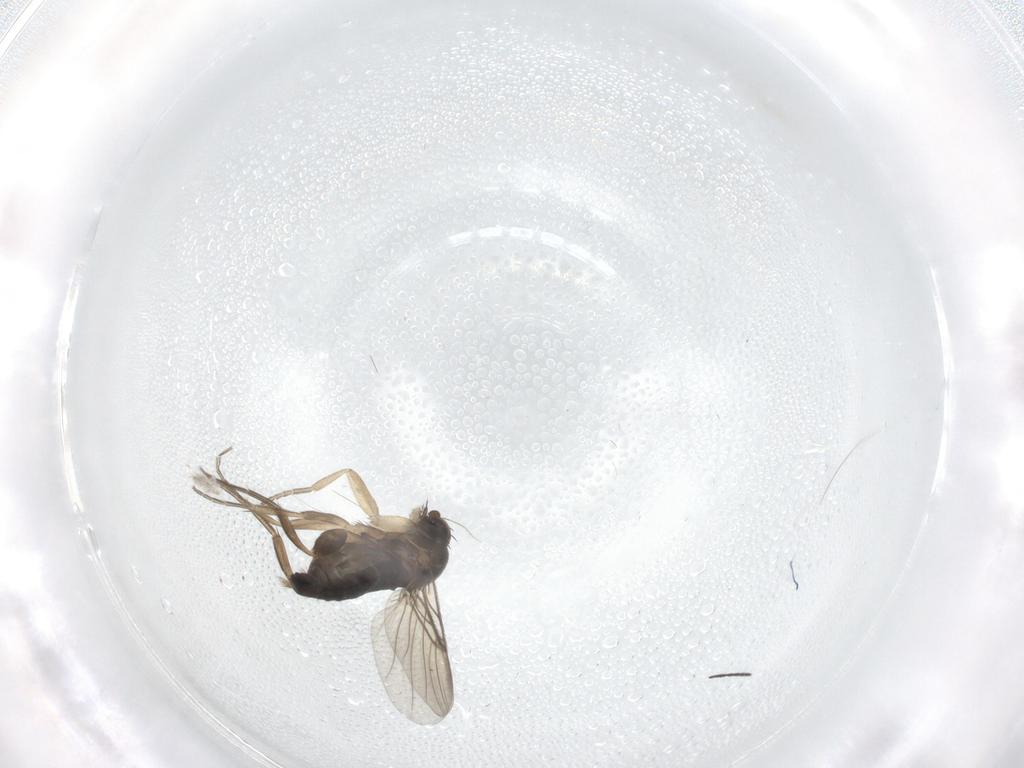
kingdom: Animalia
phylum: Arthropoda
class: Insecta
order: Diptera
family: Phoridae
